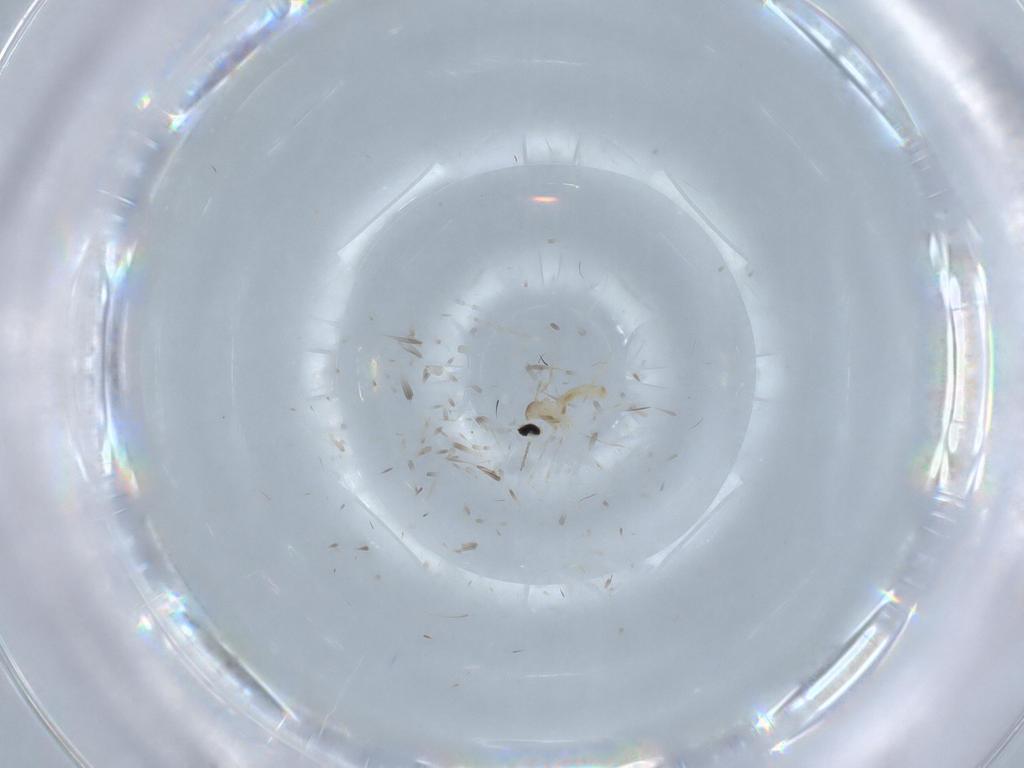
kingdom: Animalia
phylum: Arthropoda
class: Insecta
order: Diptera
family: Cecidomyiidae
